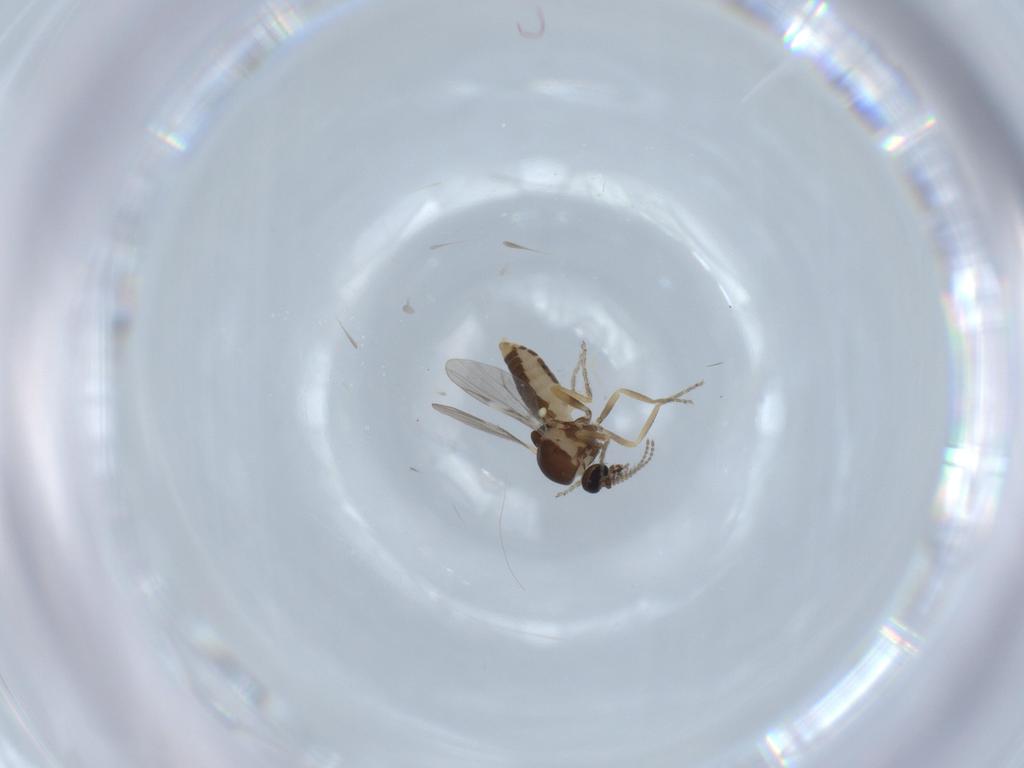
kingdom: Animalia
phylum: Arthropoda
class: Insecta
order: Diptera
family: Ceratopogonidae
